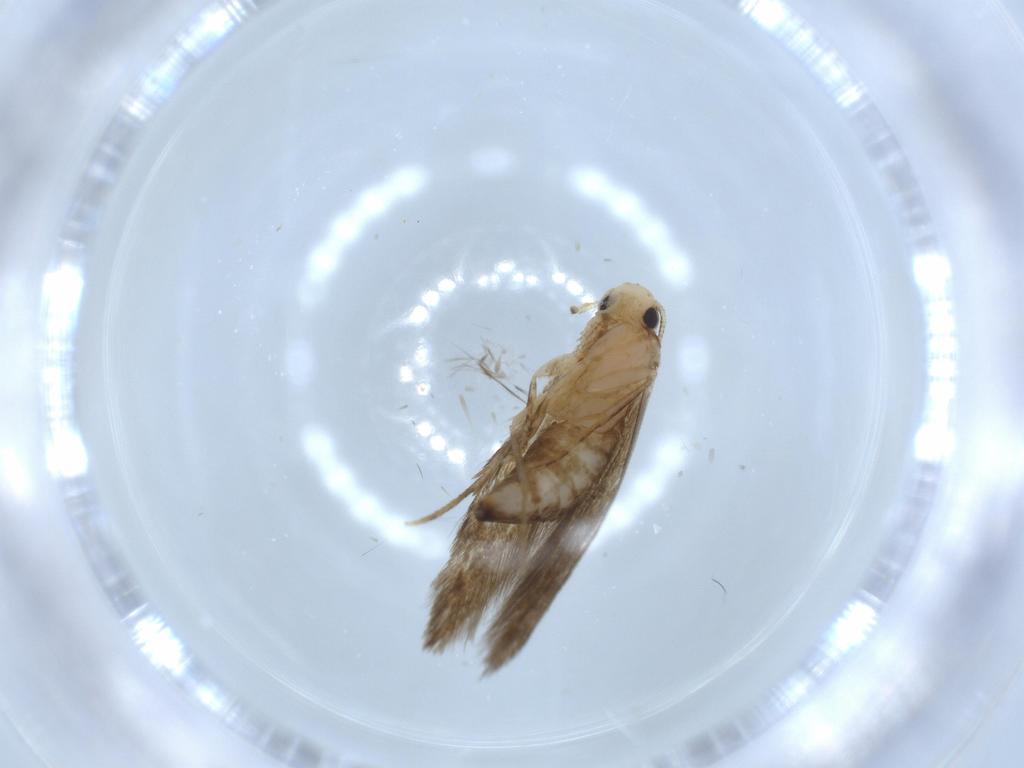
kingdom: Animalia
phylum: Arthropoda
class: Insecta
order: Lepidoptera
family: Tineidae
